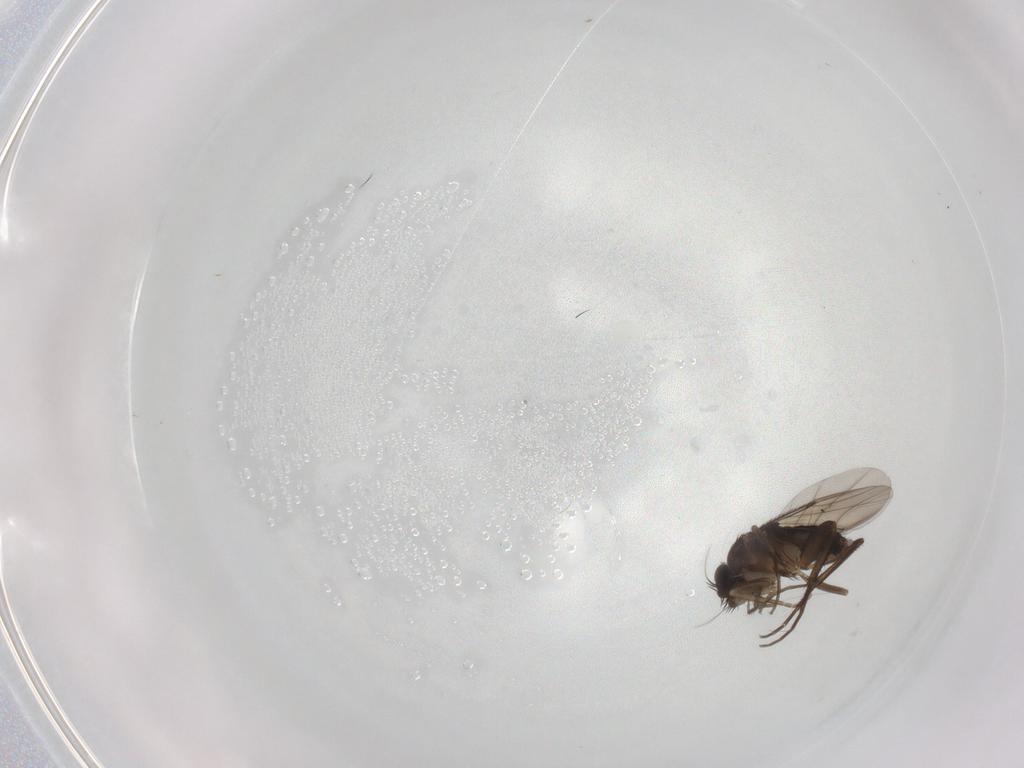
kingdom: Animalia
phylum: Arthropoda
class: Insecta
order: Diptera
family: Phoridae
